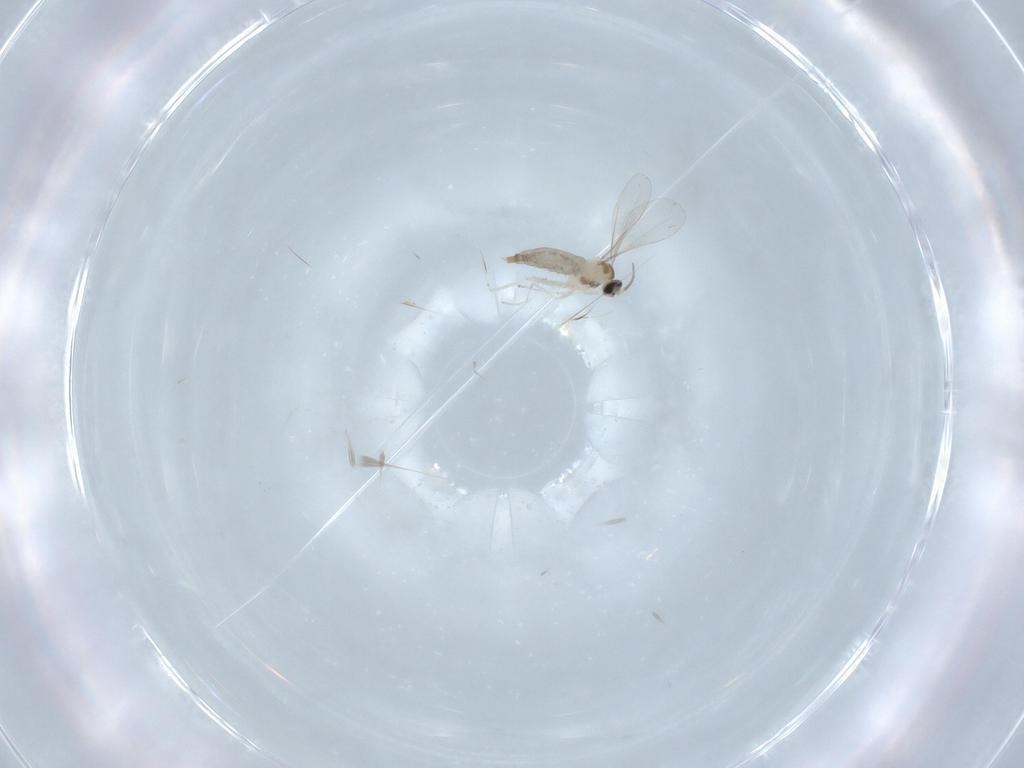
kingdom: Animalia
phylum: Arthropoda
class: Insecta
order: Diptera
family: Cecidomyiidae
